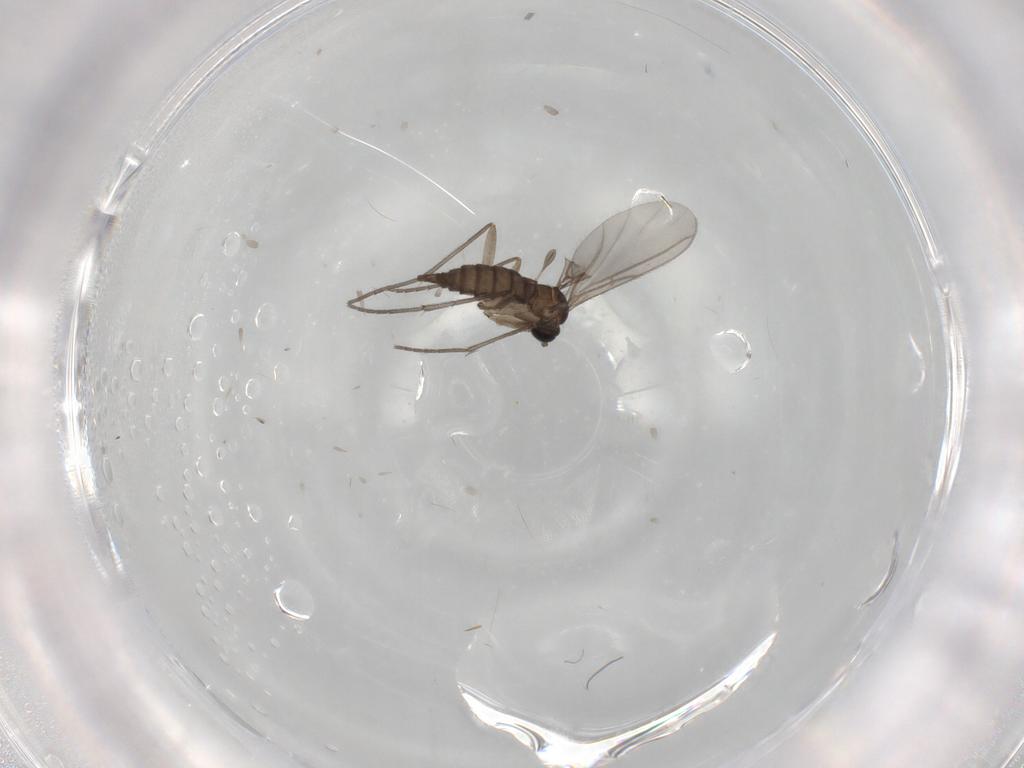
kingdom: Animalia
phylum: Arthropoda
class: Insecta
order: Diptera
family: Sciaridae
